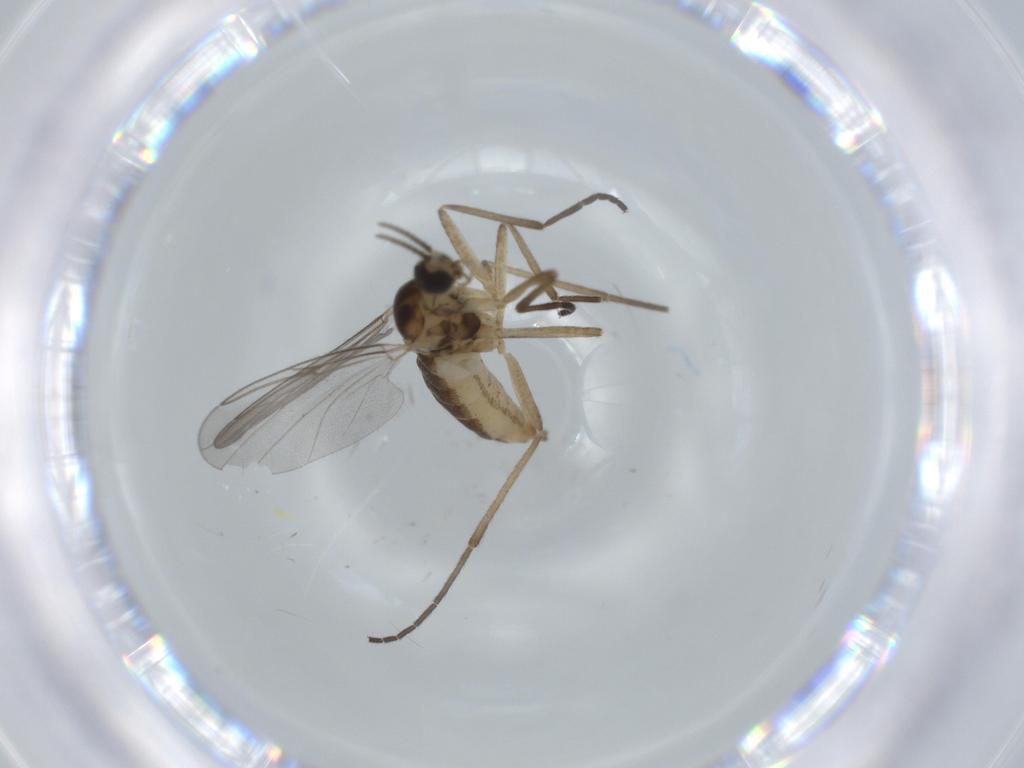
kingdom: Animalia
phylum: Arthropoda
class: Insecta
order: Diptera
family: Cecidomyiidae
